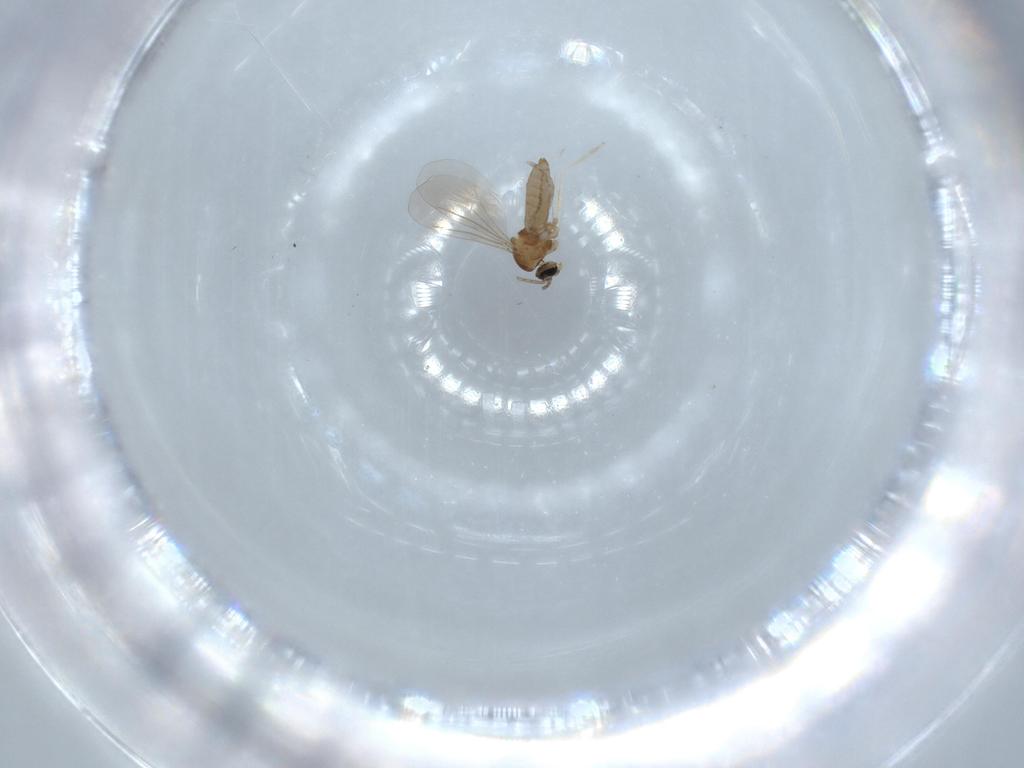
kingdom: Animalia
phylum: Arthropoda
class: Insecta
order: Diptera
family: Cecidomyiidae
